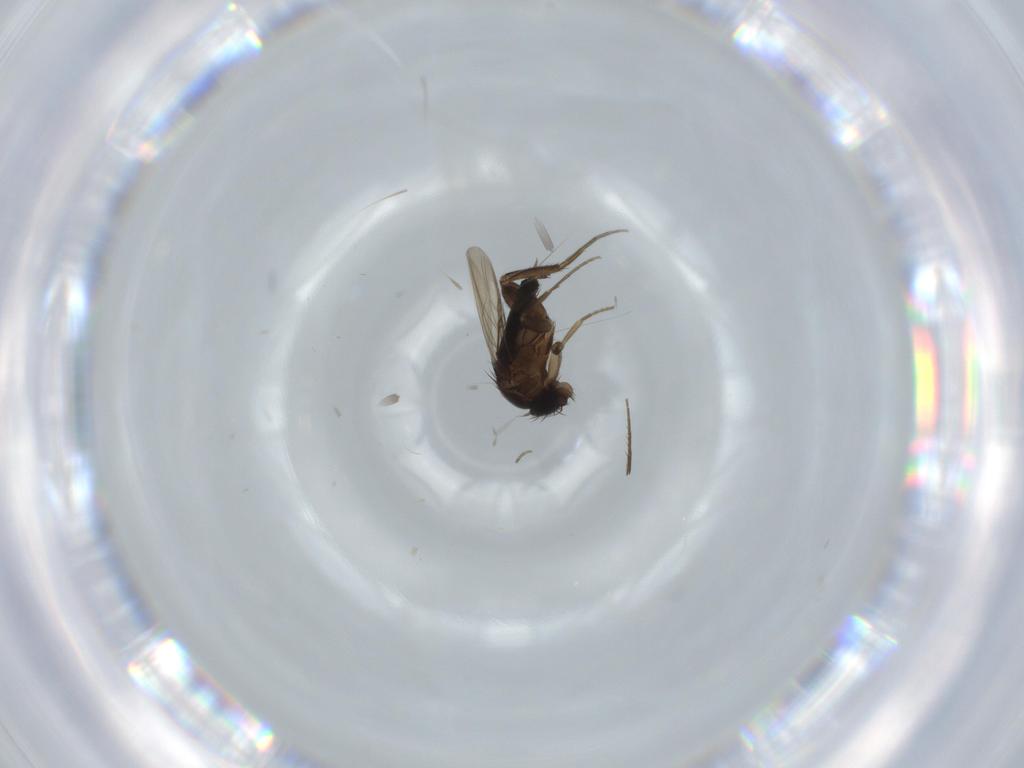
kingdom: Animalia
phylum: Arthropoda
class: Insecta
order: Diptera
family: Phoridae
